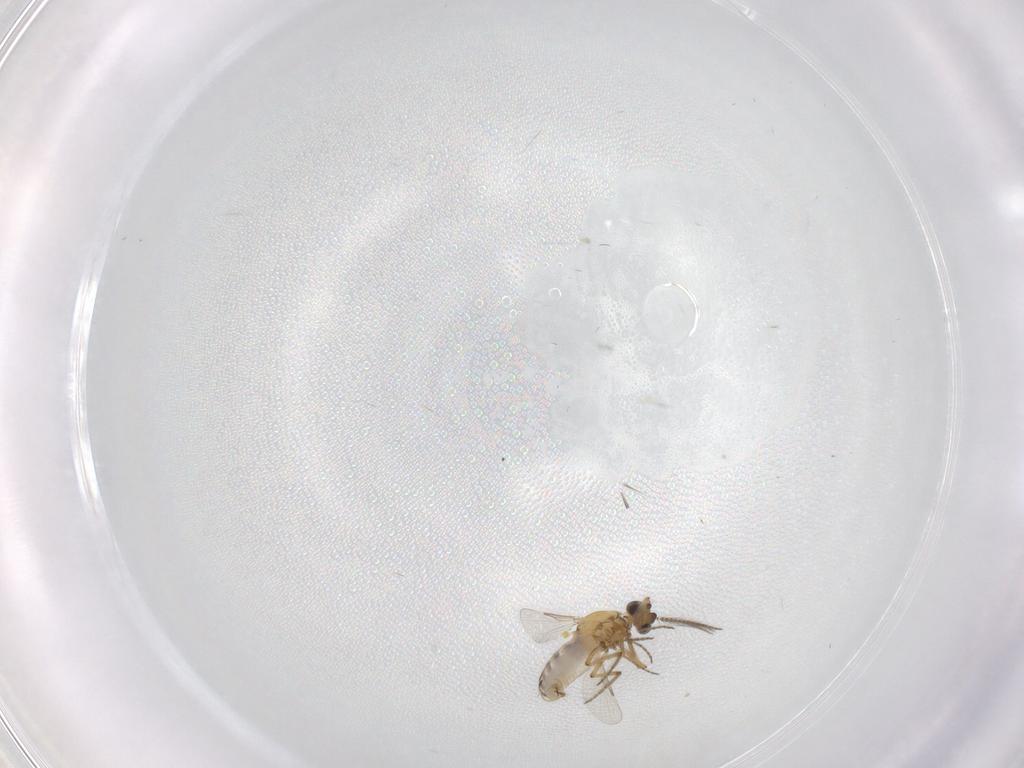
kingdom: Animalia
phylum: Arthropoda
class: Insecta
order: Diptera
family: Ceratopogonidae
